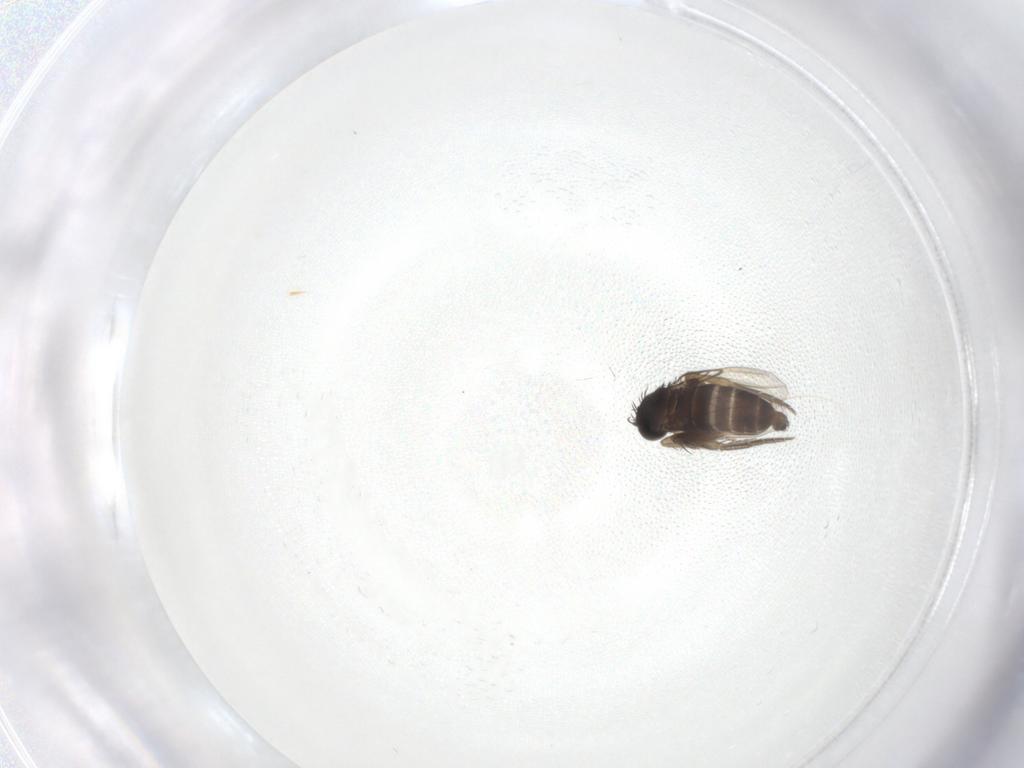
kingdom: Animalia
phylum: Arthropoda
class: Insecta
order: Diptera
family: Phoridae
